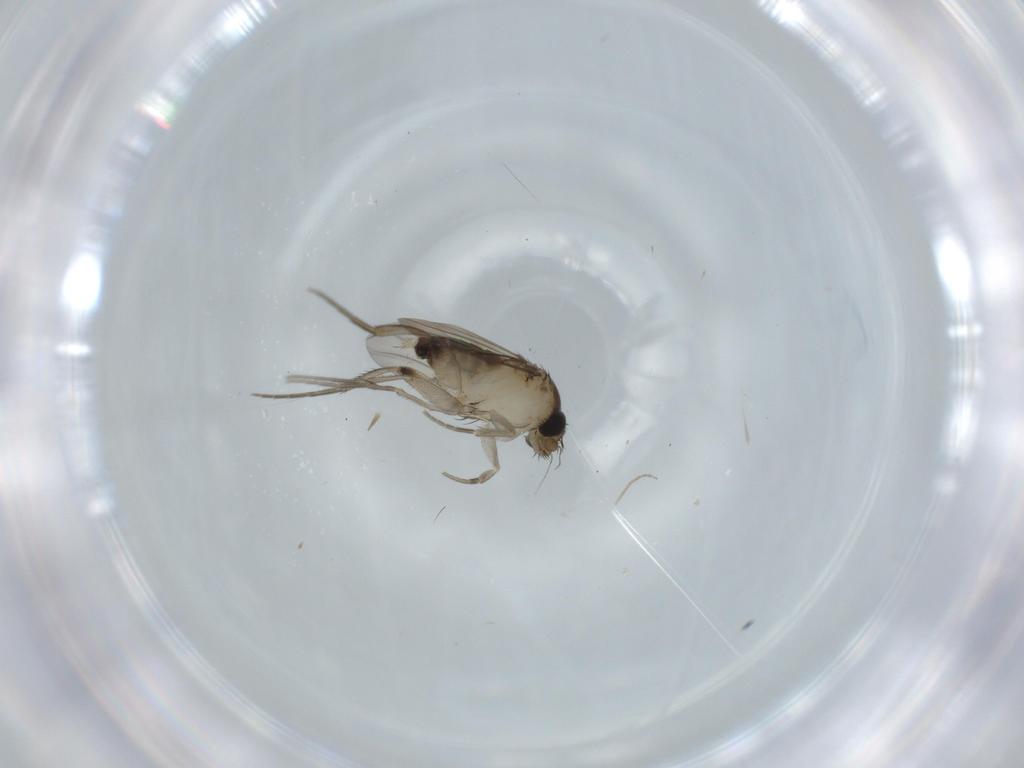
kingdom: Animalia
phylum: Arthropoda
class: Insecta
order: Diptera
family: Phoridae
